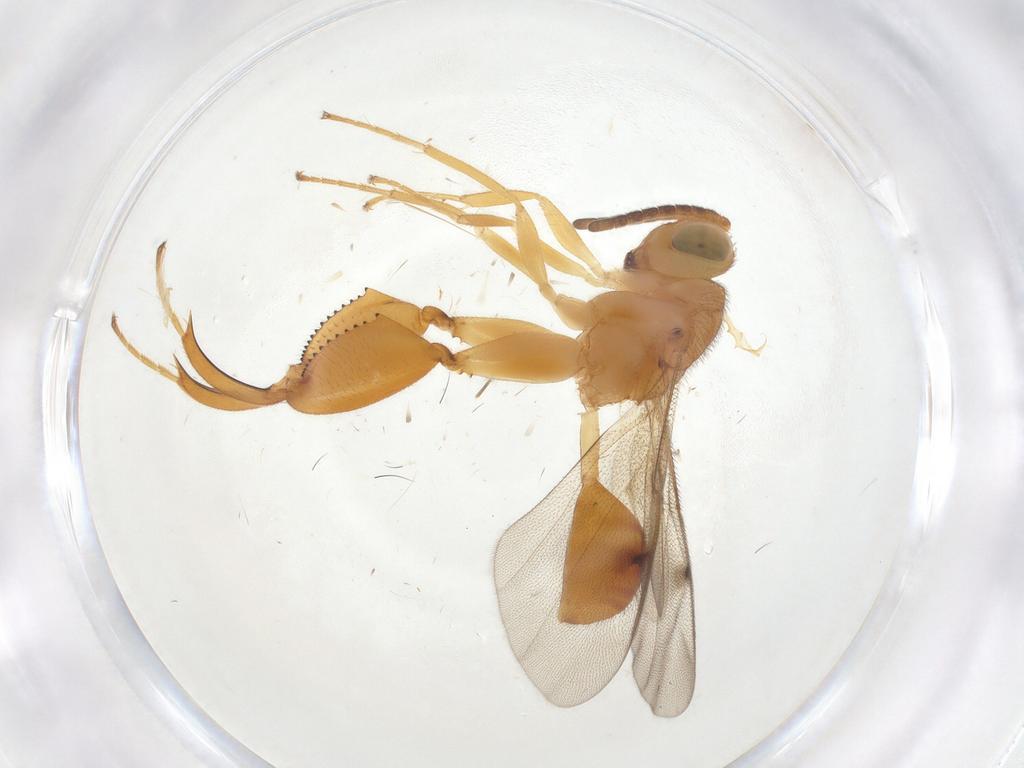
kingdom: Animalia
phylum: Arthropoda
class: Insecta
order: Hymenoptera
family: Chalcididae
